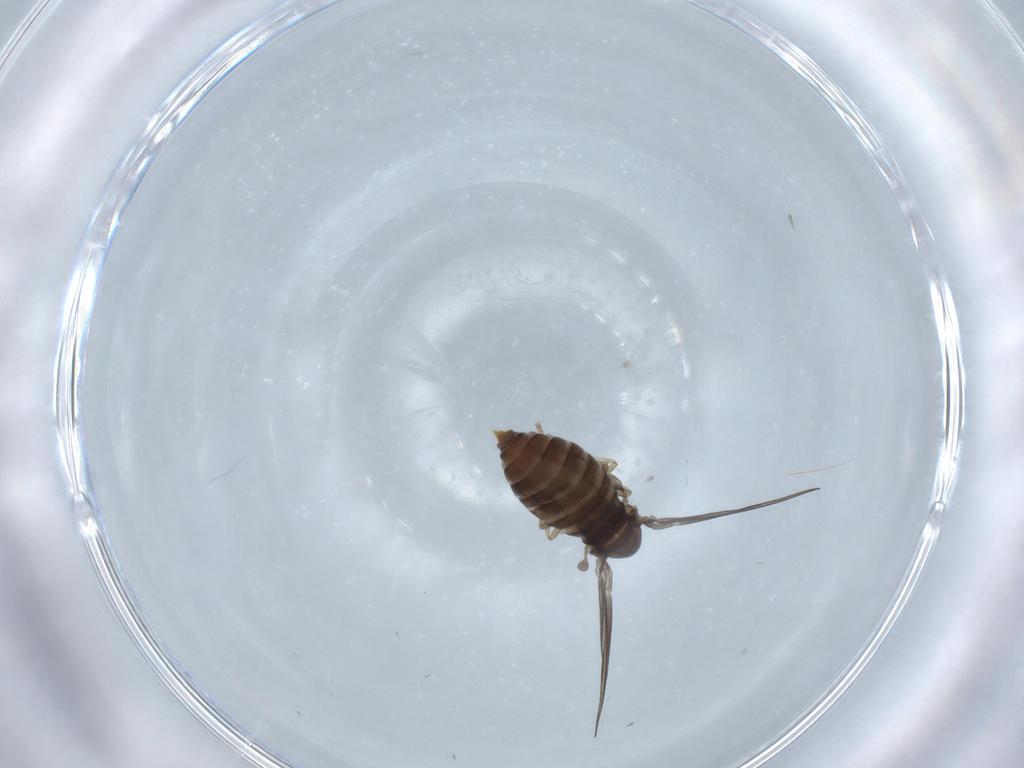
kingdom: Animalia
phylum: Arthropoda
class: Insecta
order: Diptera
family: Psychodidae
